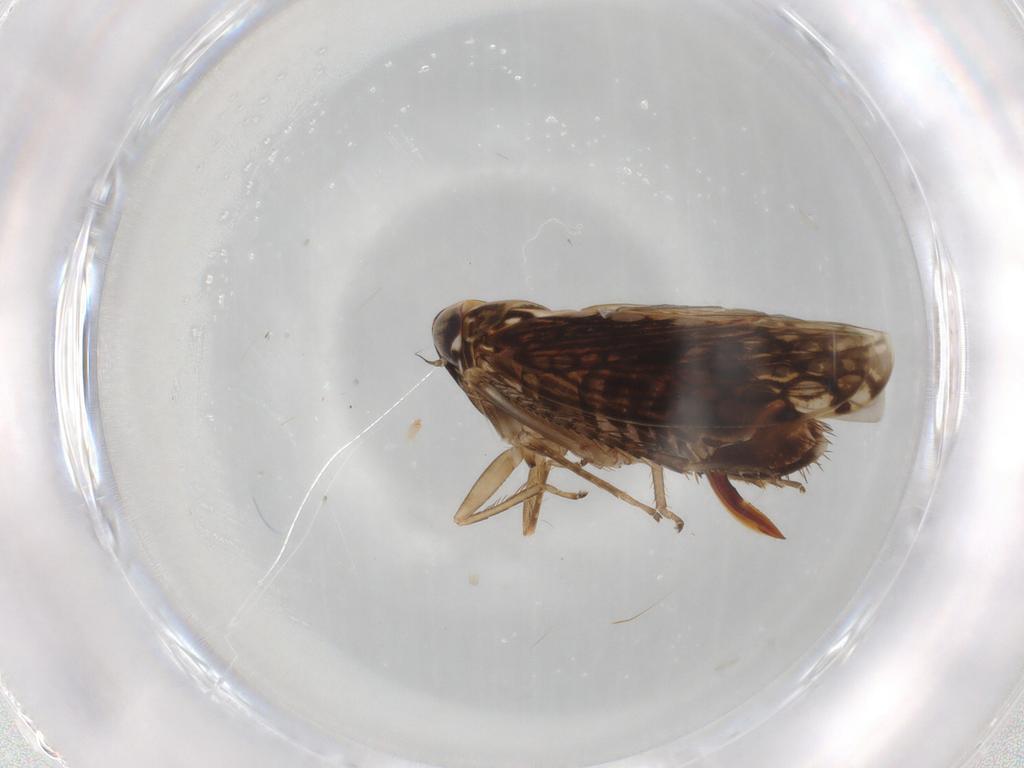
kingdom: Animalia
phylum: Arthropoda
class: Insecta
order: Hemiptera
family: Cicadellidae
